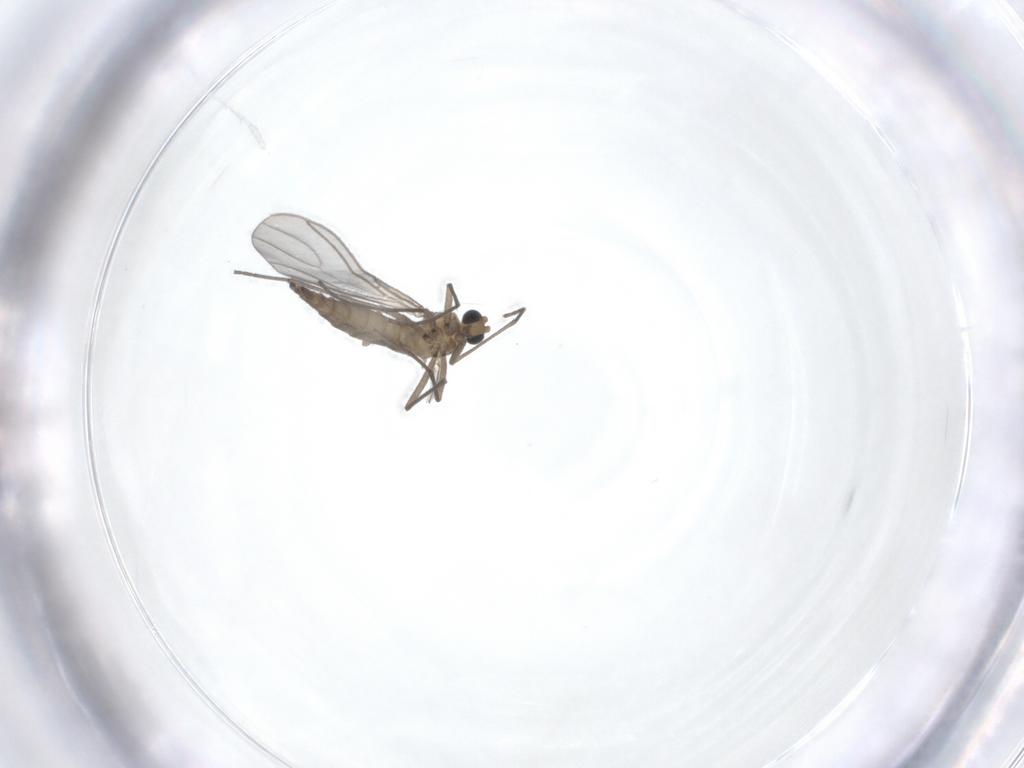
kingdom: Animalia
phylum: Arthropoda
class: Insecta
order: Diptera
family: Sciaridae
